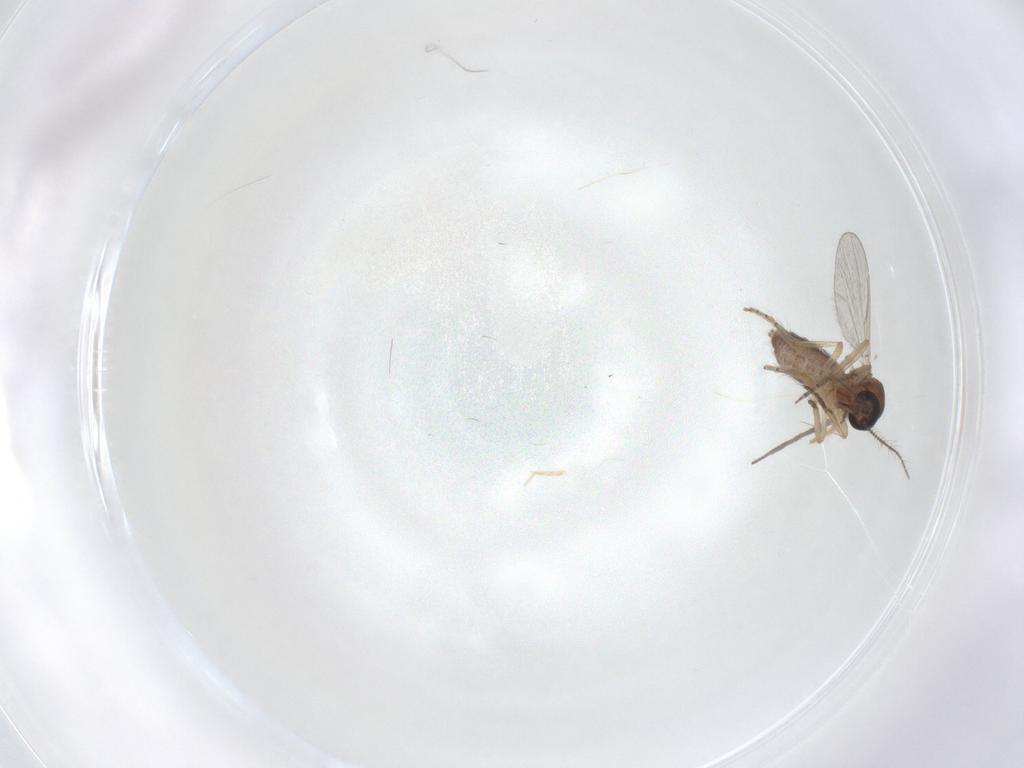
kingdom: Animalia
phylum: Arthropoda
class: Insecta
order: Diptera
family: Ceratopogonidae
